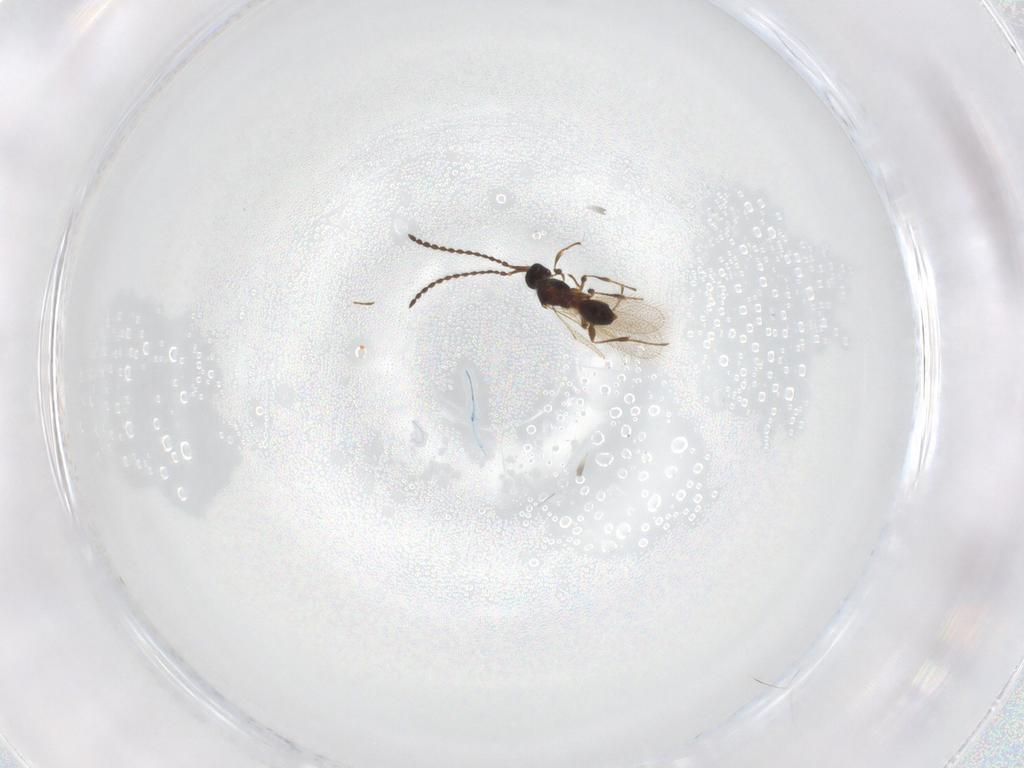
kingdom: Animalia
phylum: Arthropoda
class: Insecta
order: Hymenoptera
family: Diapriidae
